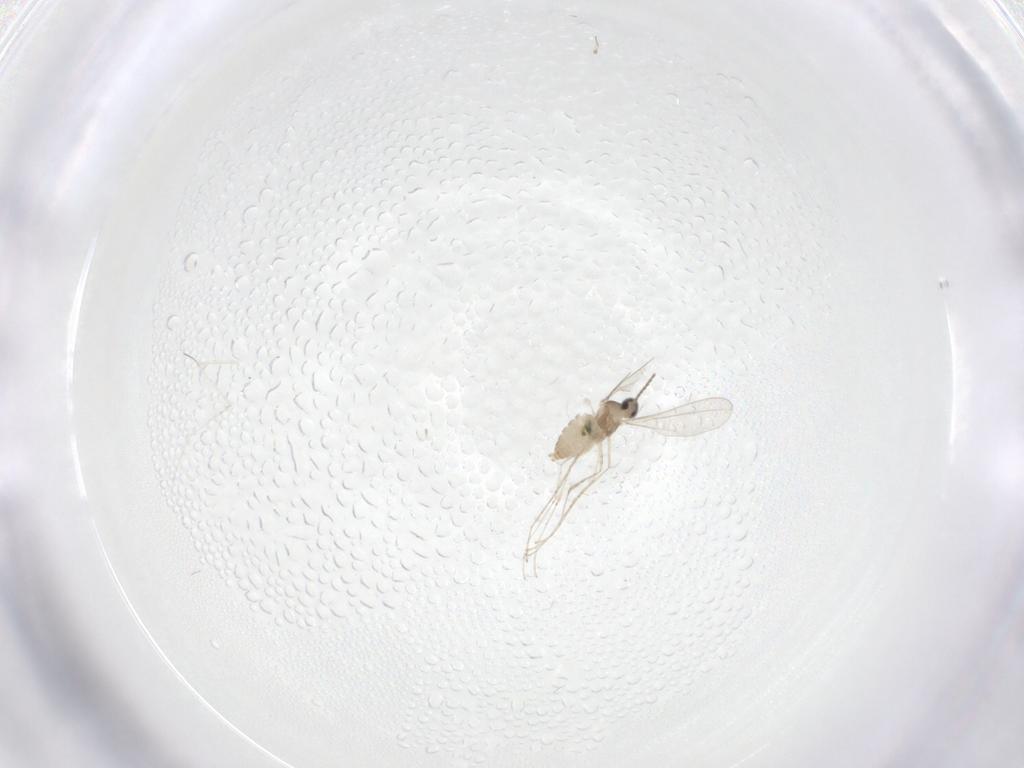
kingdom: Animalia
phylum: Arthropoda
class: Insecta
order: Diptera
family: Cecidomyiidae
